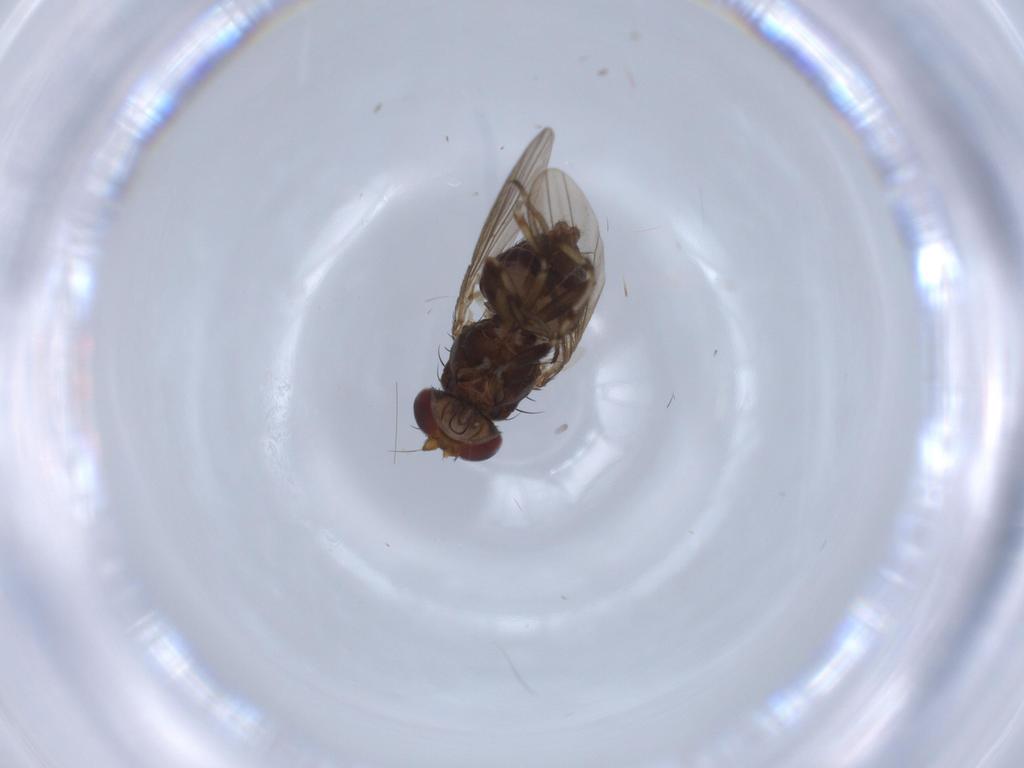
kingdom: Animalia
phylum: Arthropoda
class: Insecta
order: Diptera
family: Heleomyzidae
